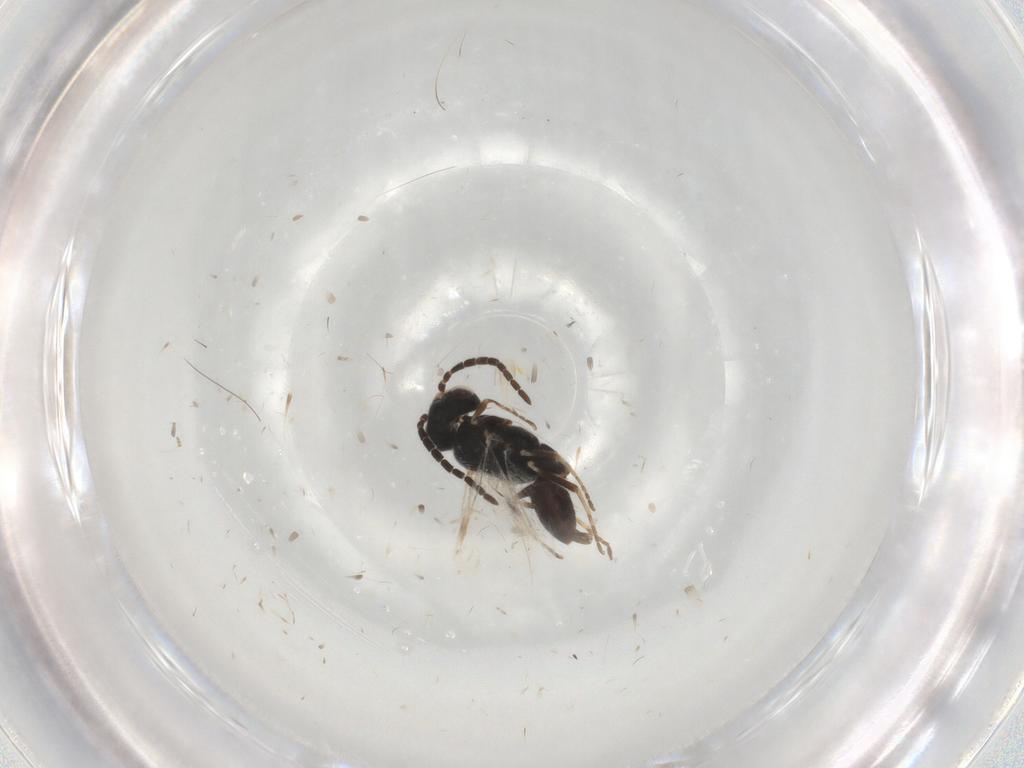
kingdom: Animalia
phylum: Arthropoda
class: Insecta
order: Hymenoptera
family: Dryinidae
